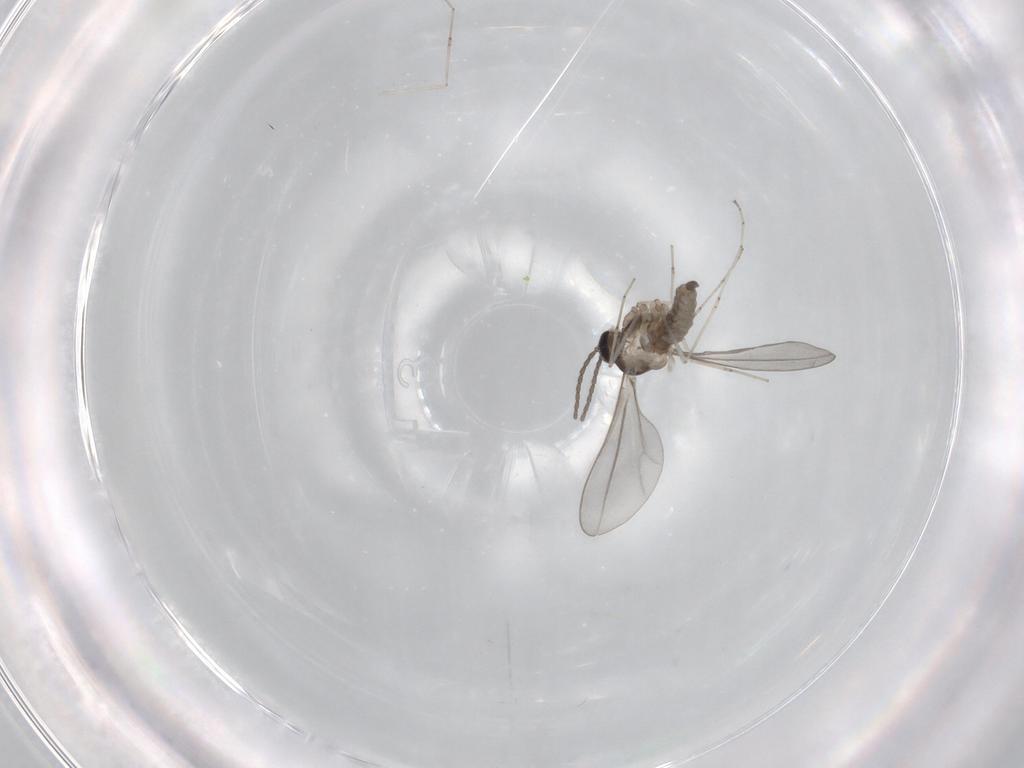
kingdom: Animalia
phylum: Arthropoda
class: Insecta
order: Diptera
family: Cecidomyiidae
